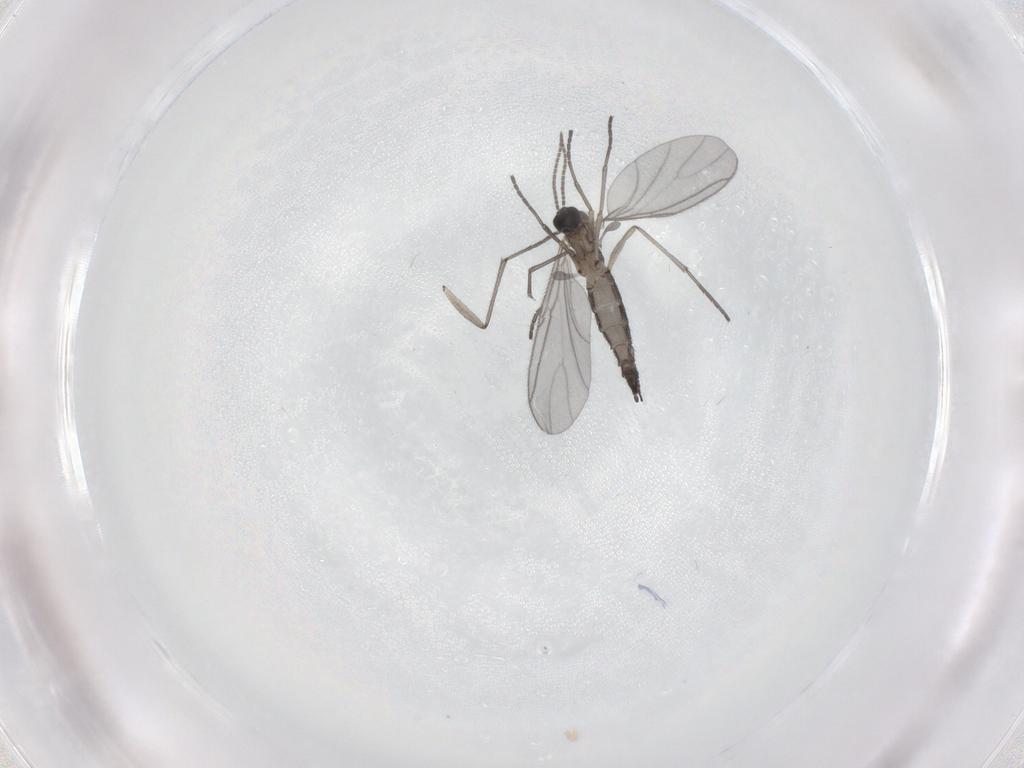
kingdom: Animalia
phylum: Arthropoda
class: Insecta
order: Diptera
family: Sciaridae
